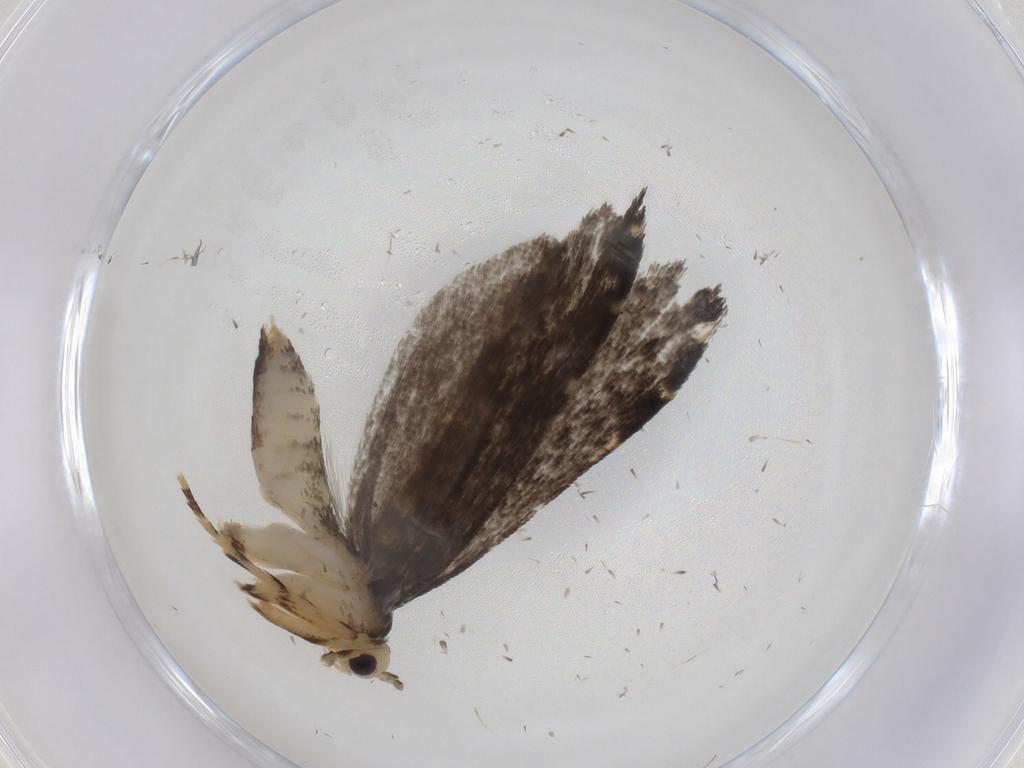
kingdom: Animalia
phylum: Arthropoda
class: Insecta
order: Lepidoptera
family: Tineidae
